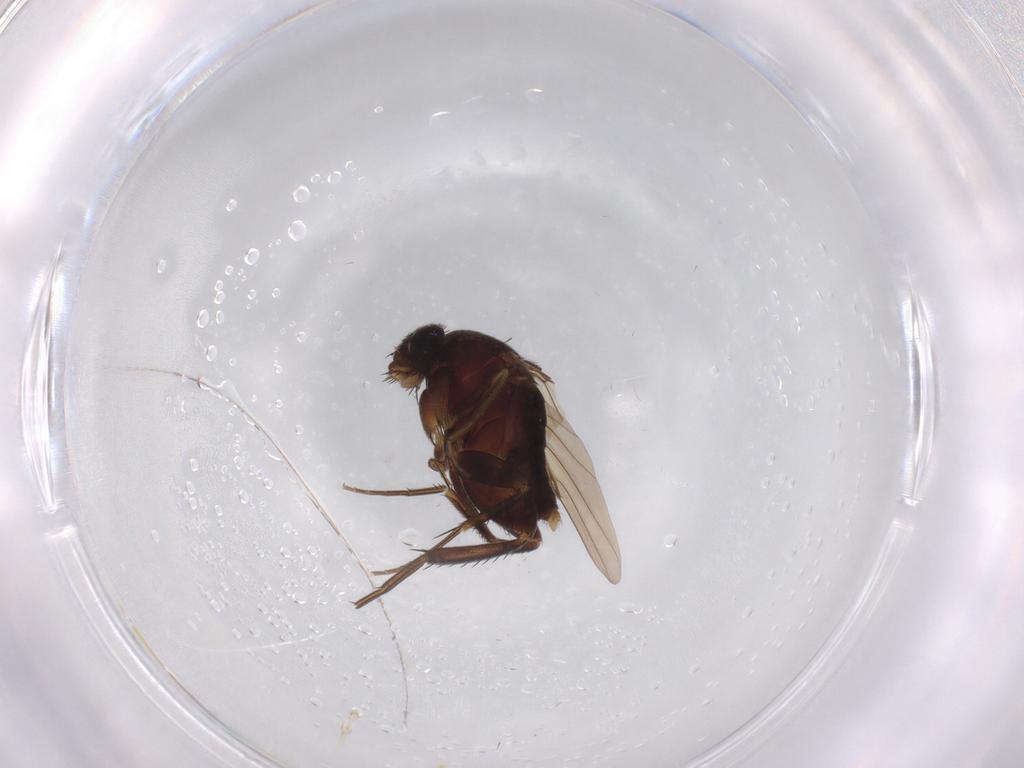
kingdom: Animalia
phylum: Arthropoda
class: Insecta
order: Diptera
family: Phoridae
